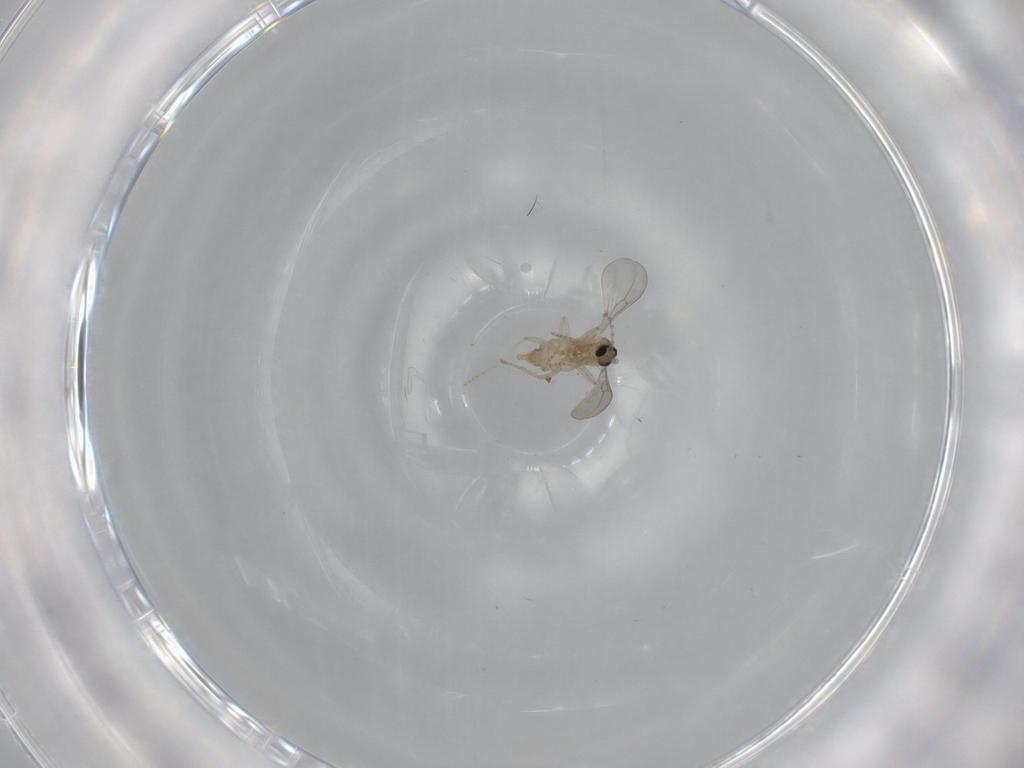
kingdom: Animalia
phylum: Arthropoda
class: Insecta
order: Diptera
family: Cecidomyiidae
